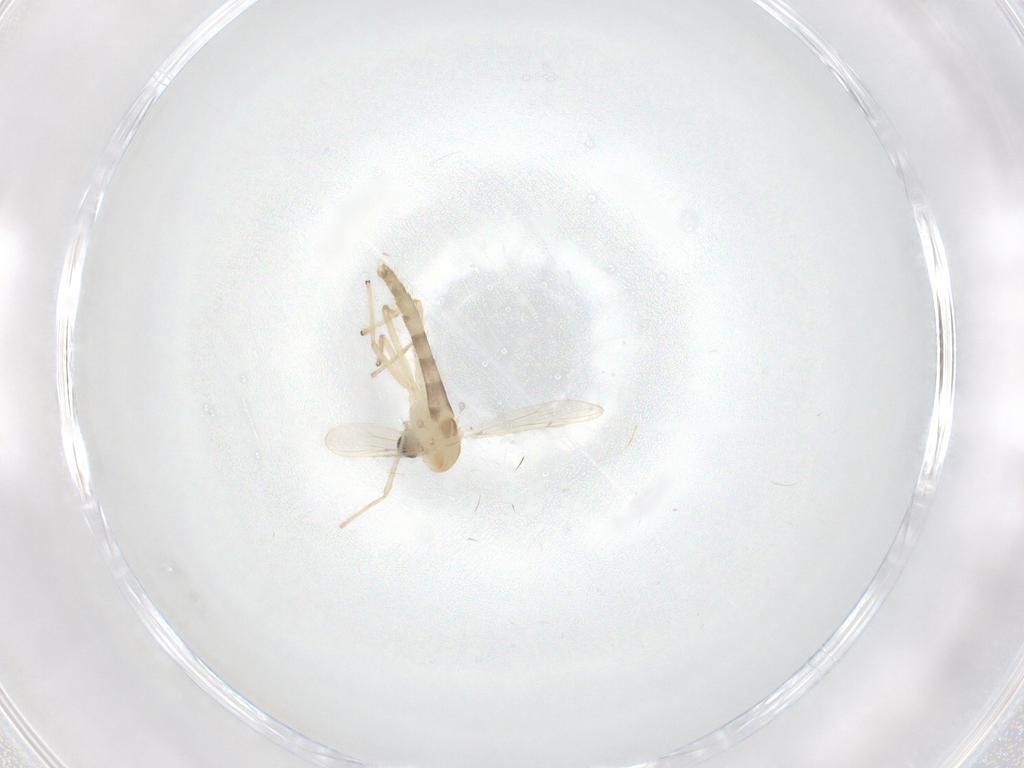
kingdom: Animalia
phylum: Arthropoda
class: Insecta
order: Diptera
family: Chironomidae
